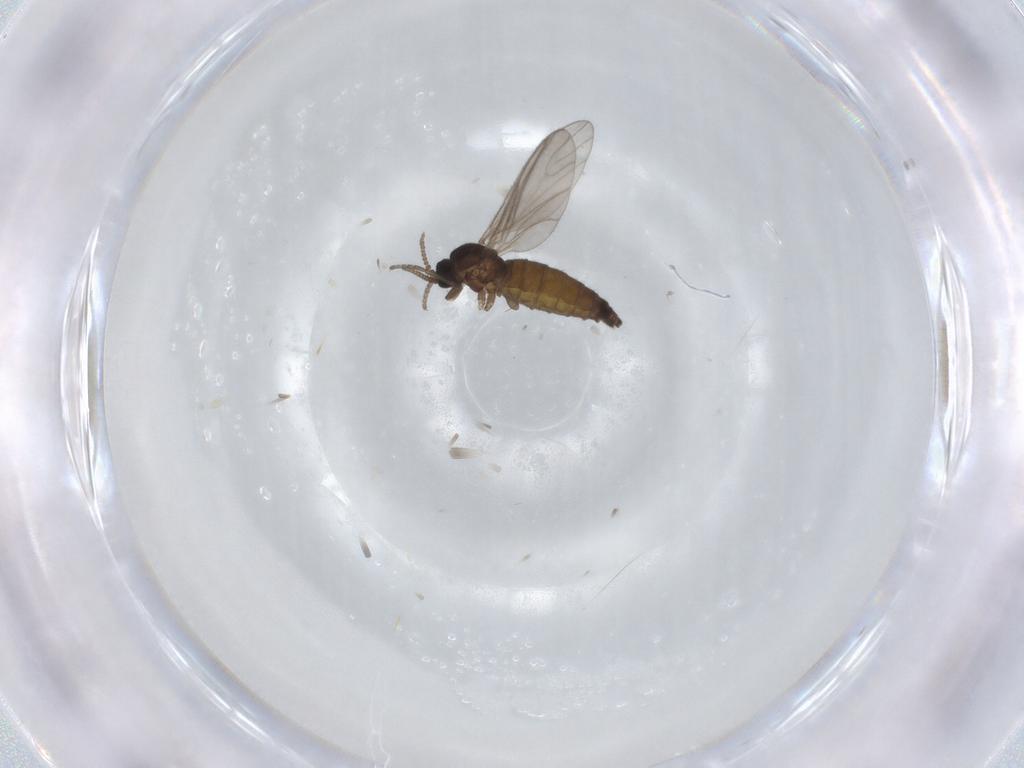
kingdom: Animalia
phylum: Arthropoda
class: Insecta
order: Diptera
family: Sciaridae
